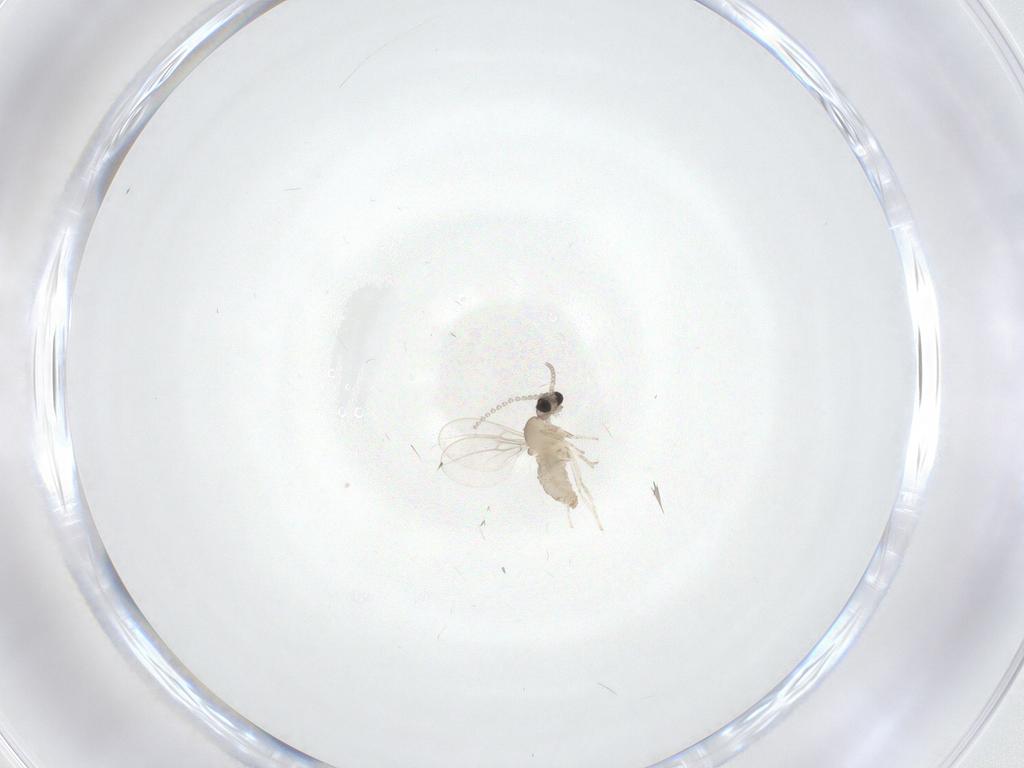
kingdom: Animalia
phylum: Arthropoda
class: Insecta
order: Diptera
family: Cecidomyiidae
